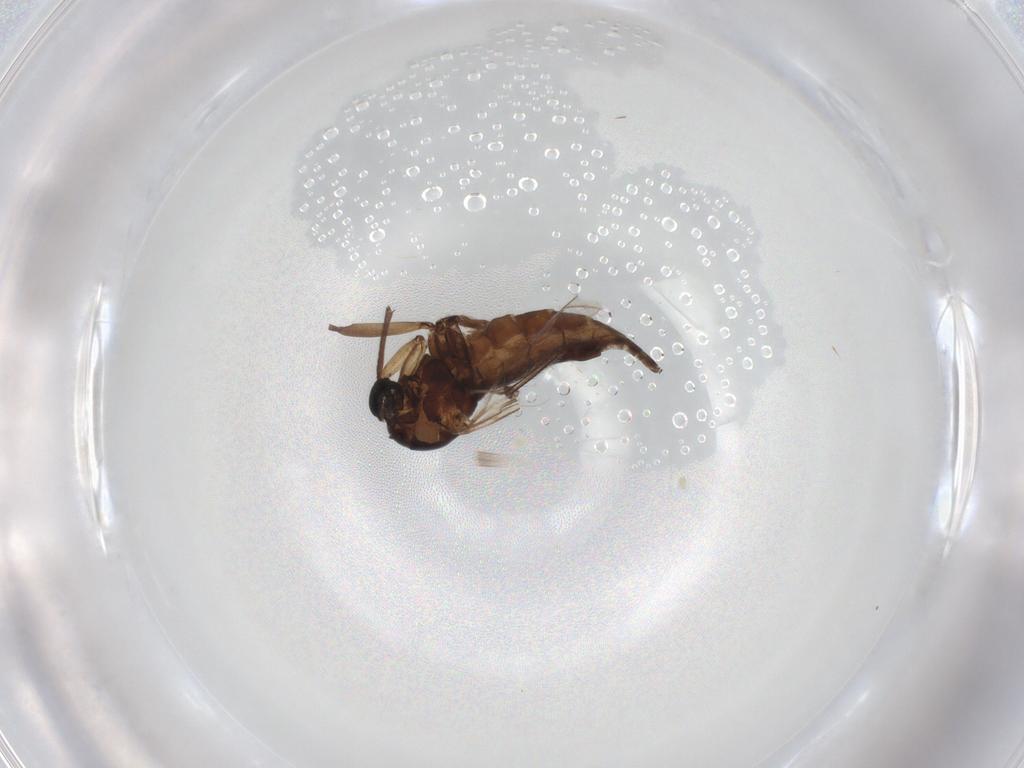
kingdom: Animalia
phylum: Arthropoda
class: Insecta
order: Diptera
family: Sciaridae
